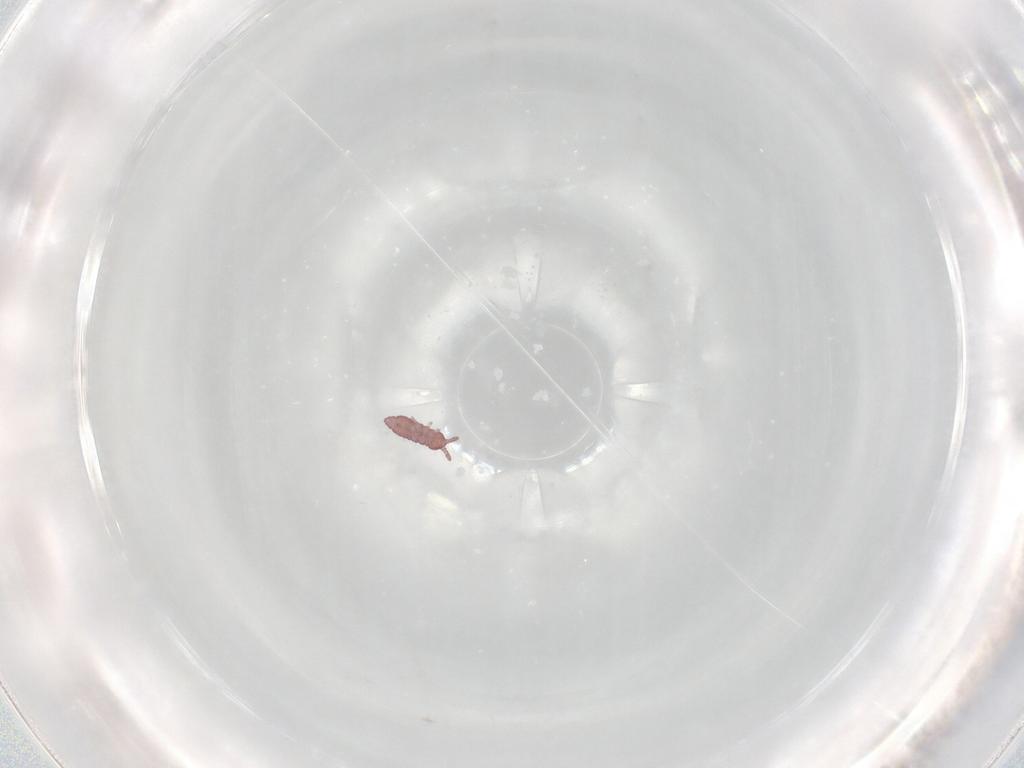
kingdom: Animalia
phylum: Arthropoda
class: Collembola
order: Poduromorpha
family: Hypogastruridae
